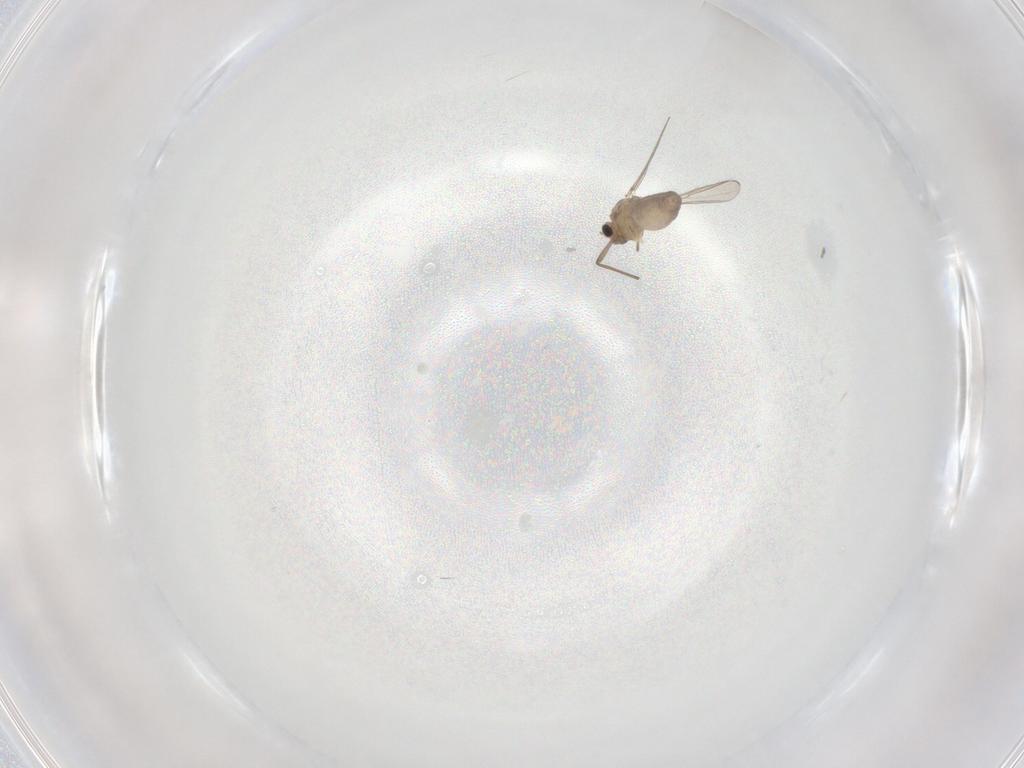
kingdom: Animalia
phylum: Arthropoda
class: Insecta
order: Diptera
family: Chironomidae
